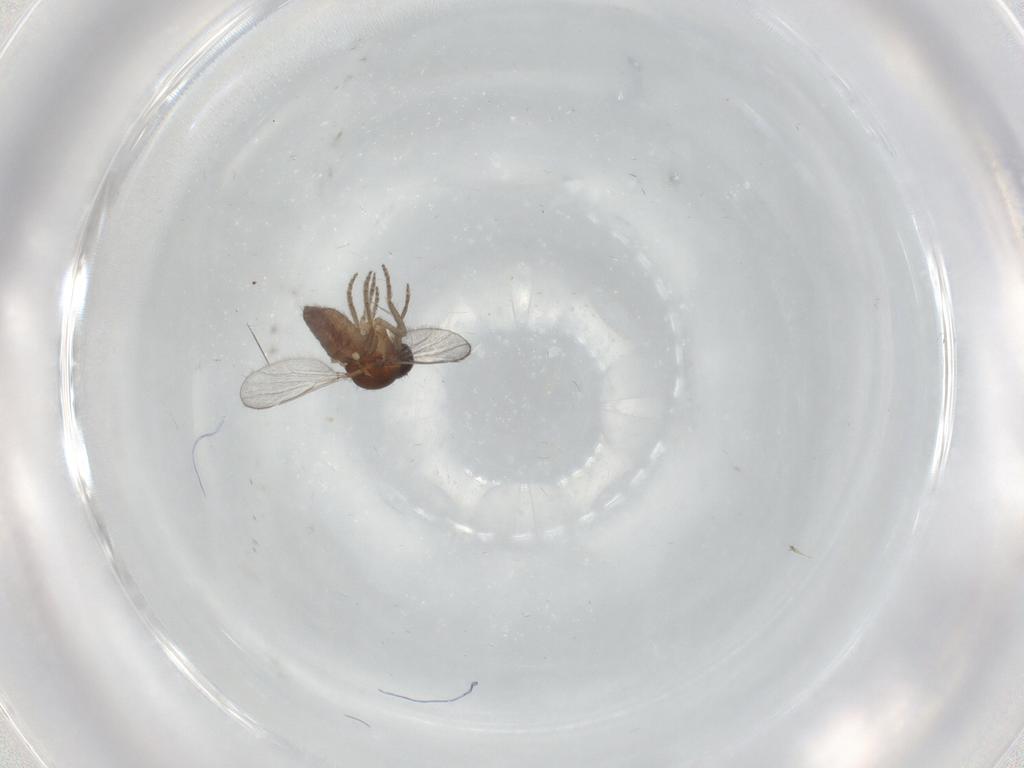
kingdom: Animalia
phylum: Arthropoda
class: Insecta
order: Diptera
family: Ceratopogonidae
